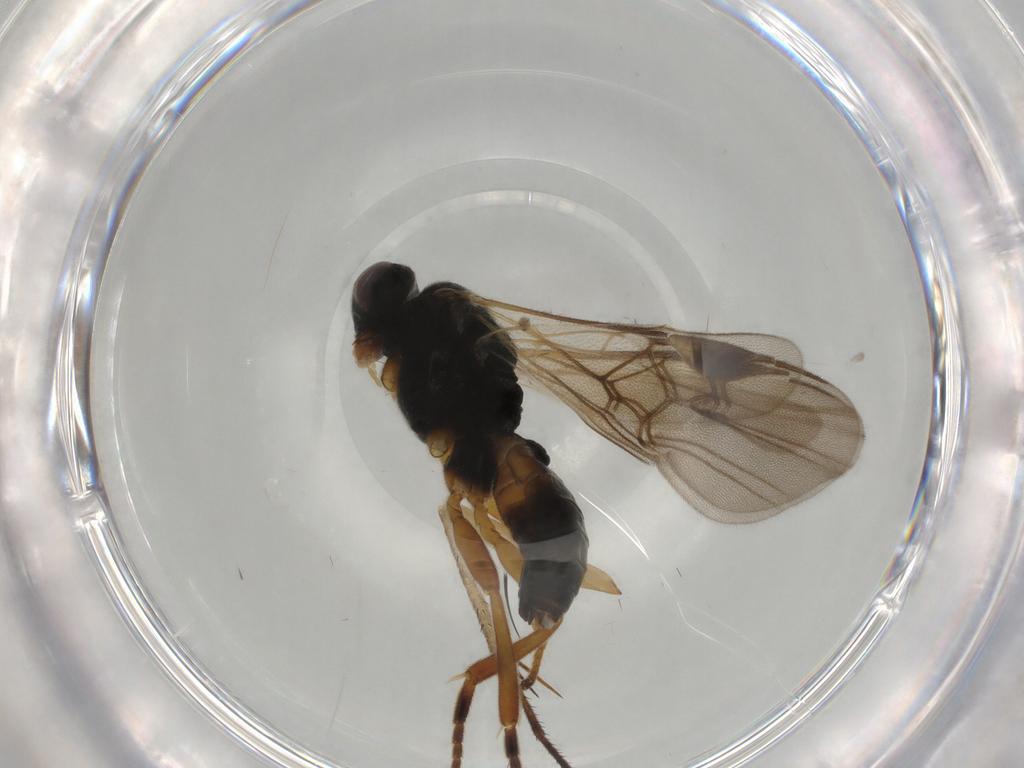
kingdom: Animalia
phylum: Arthropoda
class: Insecta
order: Hymenoptera
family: Braconidae
